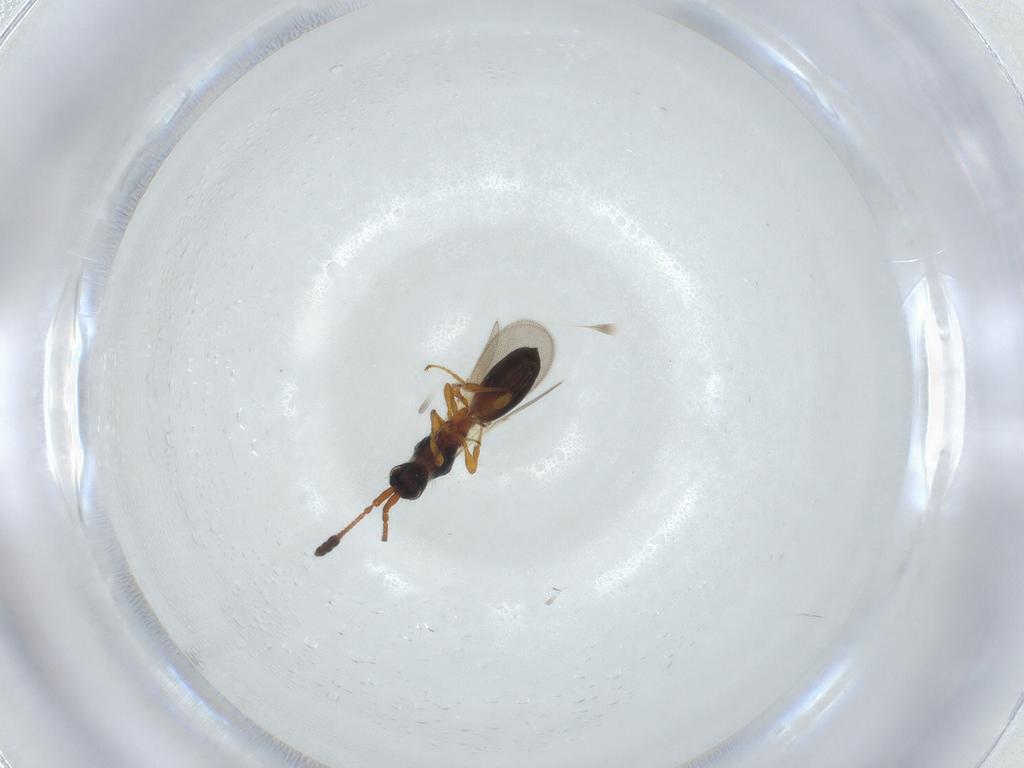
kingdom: Animalia
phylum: Arthropoda
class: Insecta
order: Hymenoptera
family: Diapriidae
